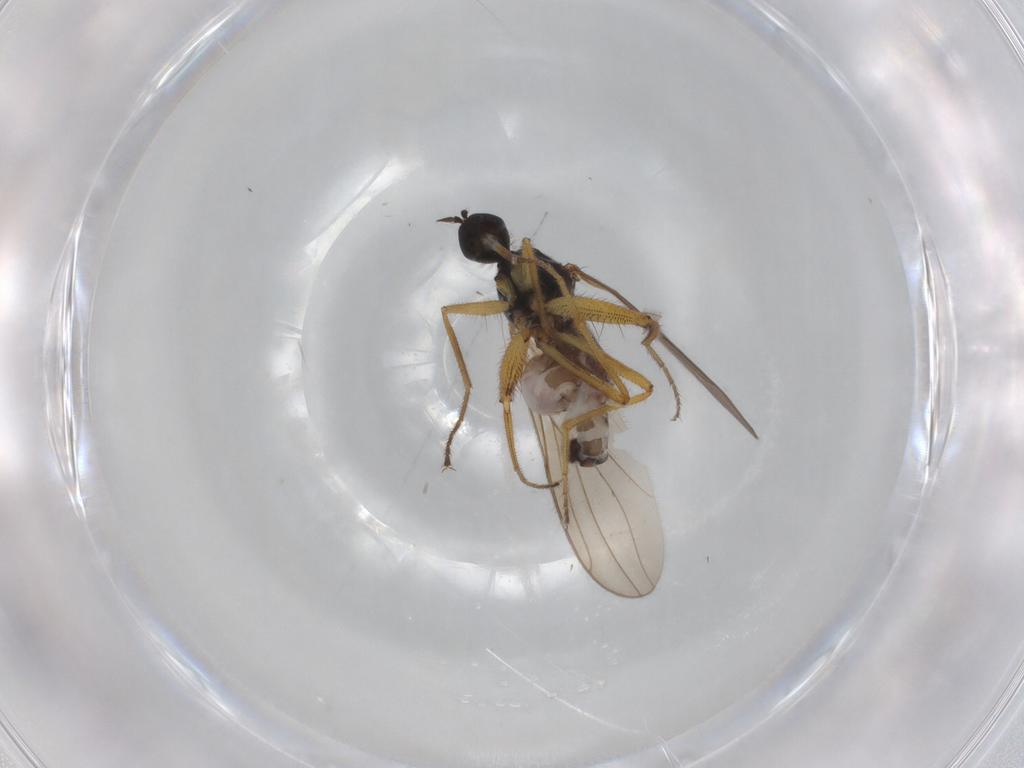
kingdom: Animalia
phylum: Arthropoda
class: Insecta
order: Diptera
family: Hybotidae
